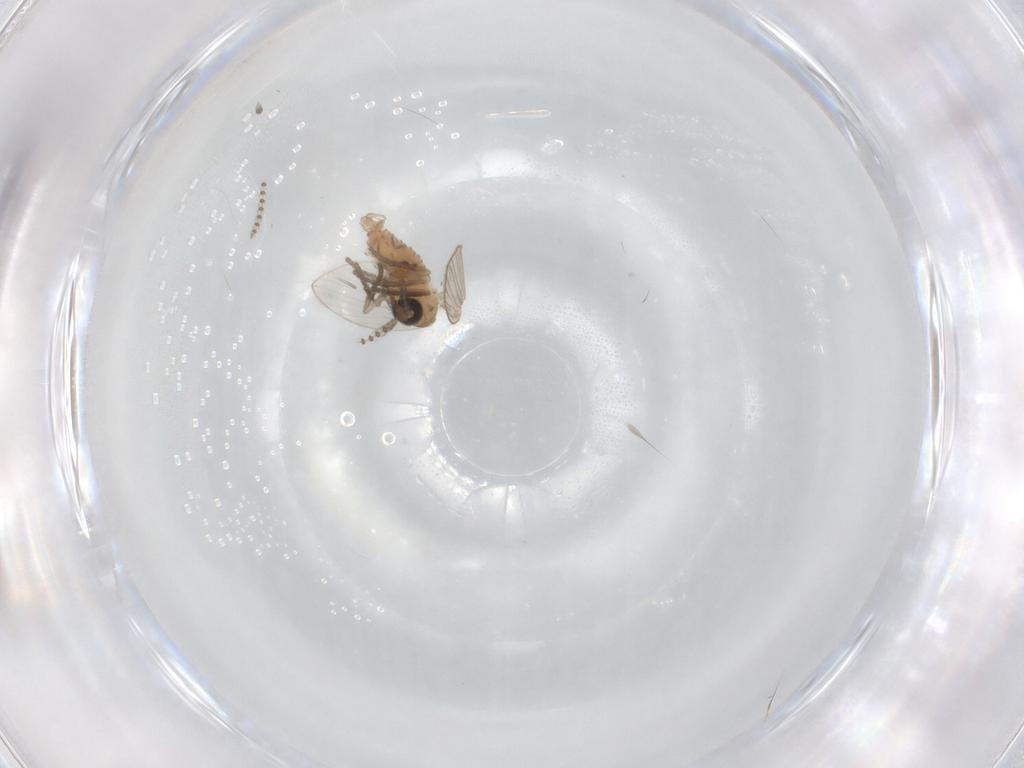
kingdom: Animalia
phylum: Arthropoda
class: Insecta
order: Diptera
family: Psychodidae
